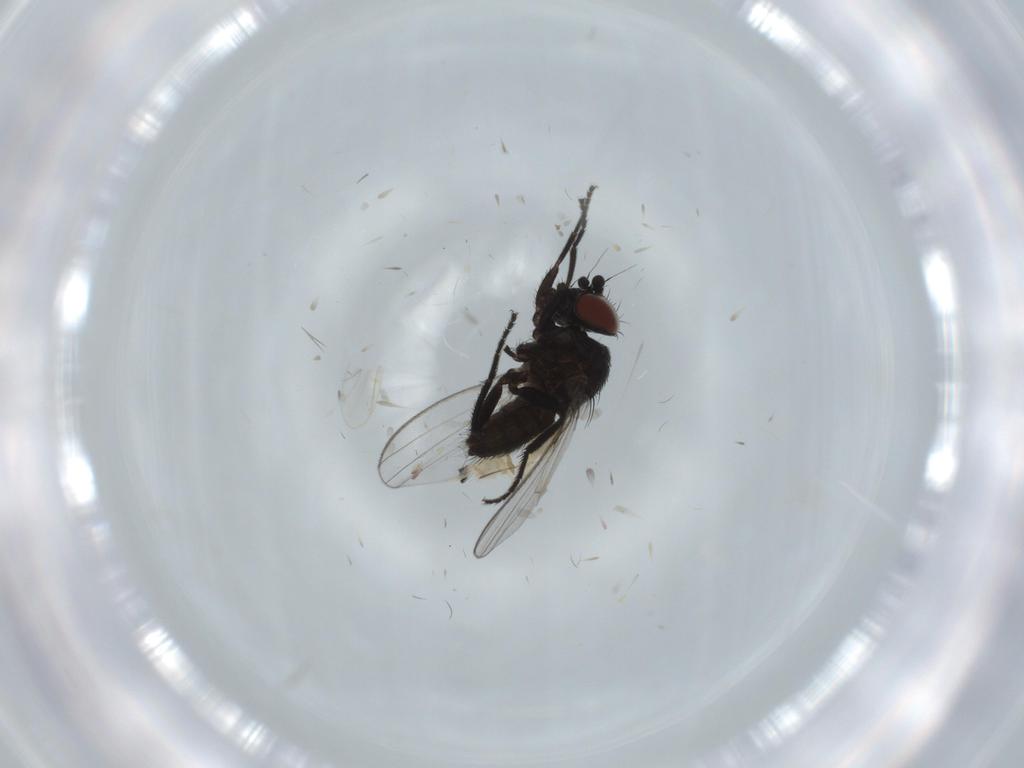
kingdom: Animalia
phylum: Arthropoda
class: Insecta
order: Diptera
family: Milichiidae
